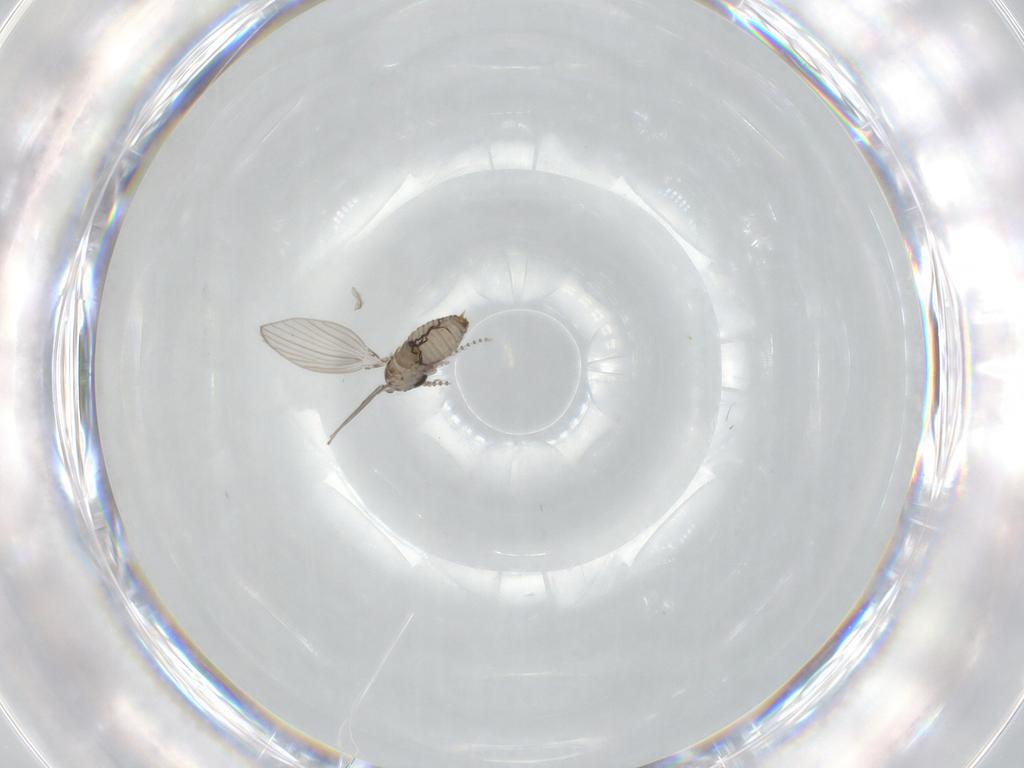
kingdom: Animalia
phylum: Arthropoda
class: Insecta
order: Diptera
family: Psychodidae
